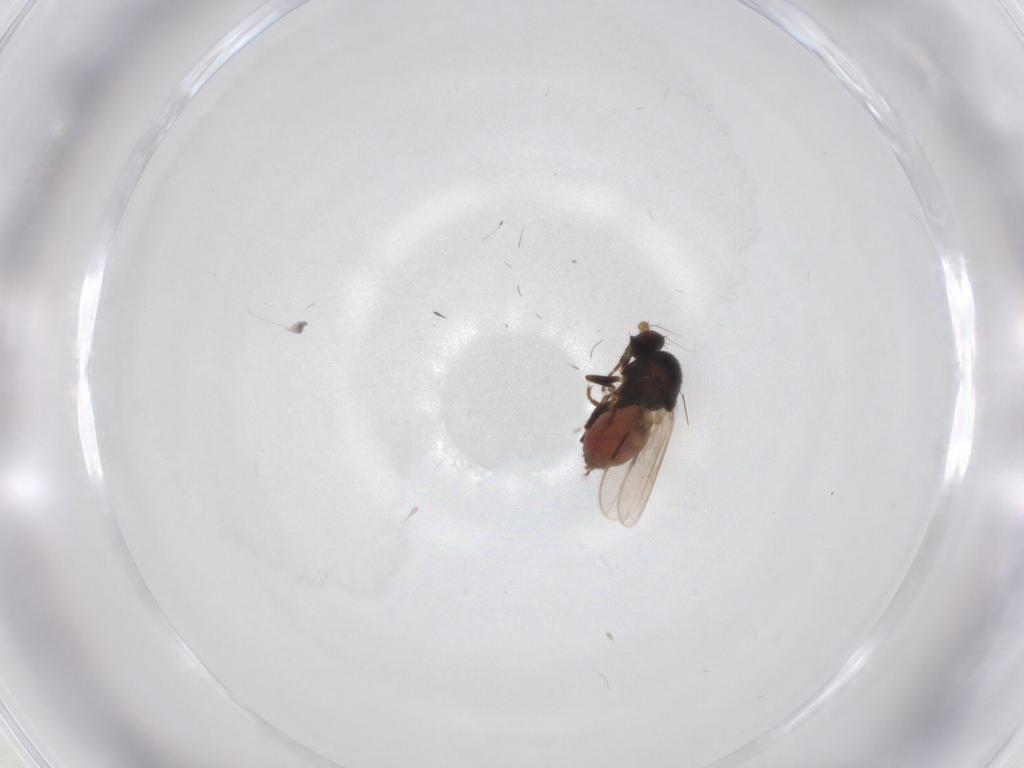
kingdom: Animalia
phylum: Arthropoda
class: Insecta
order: Diptera
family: Sphaeroceridae
